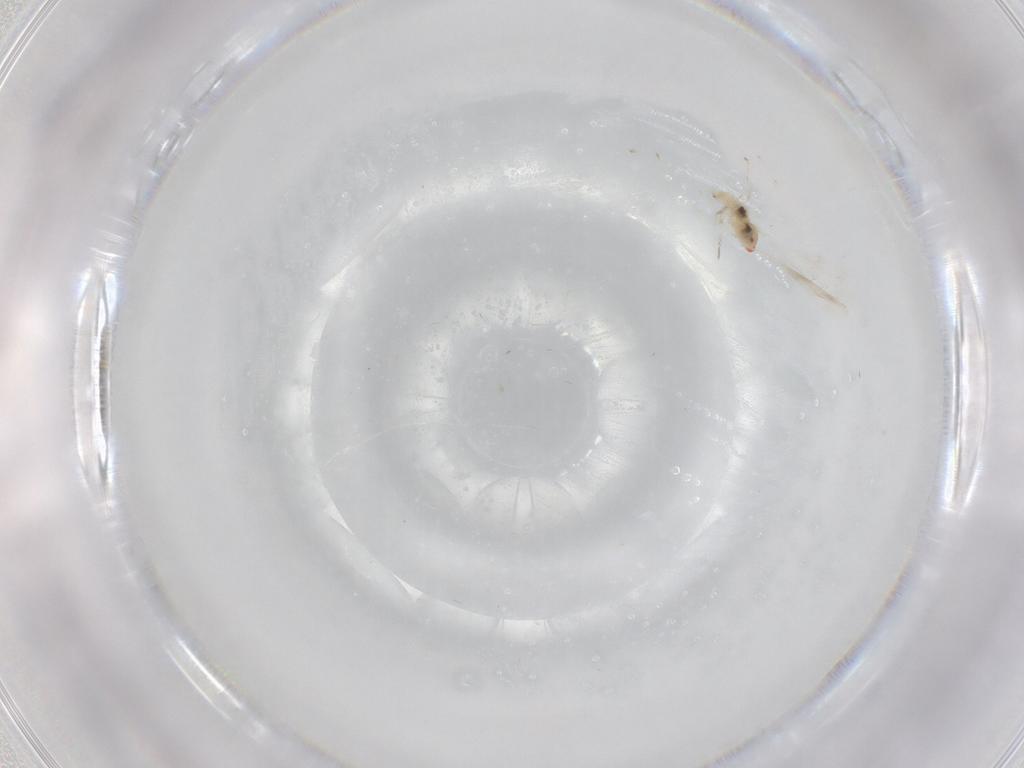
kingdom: Animalia
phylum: Arthropoda
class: Insecta
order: Diptera
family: Cecidomyiidae
